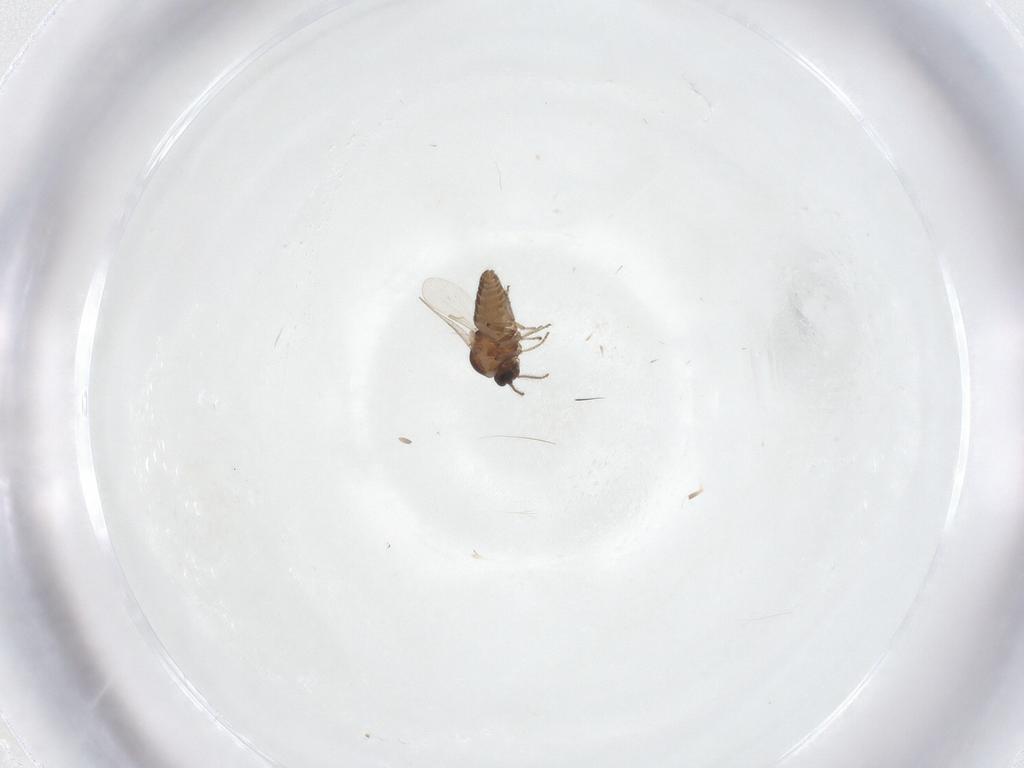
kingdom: Animalia
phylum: Arthropoda
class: Insecta
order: Diptera
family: Ceratopogonidae
